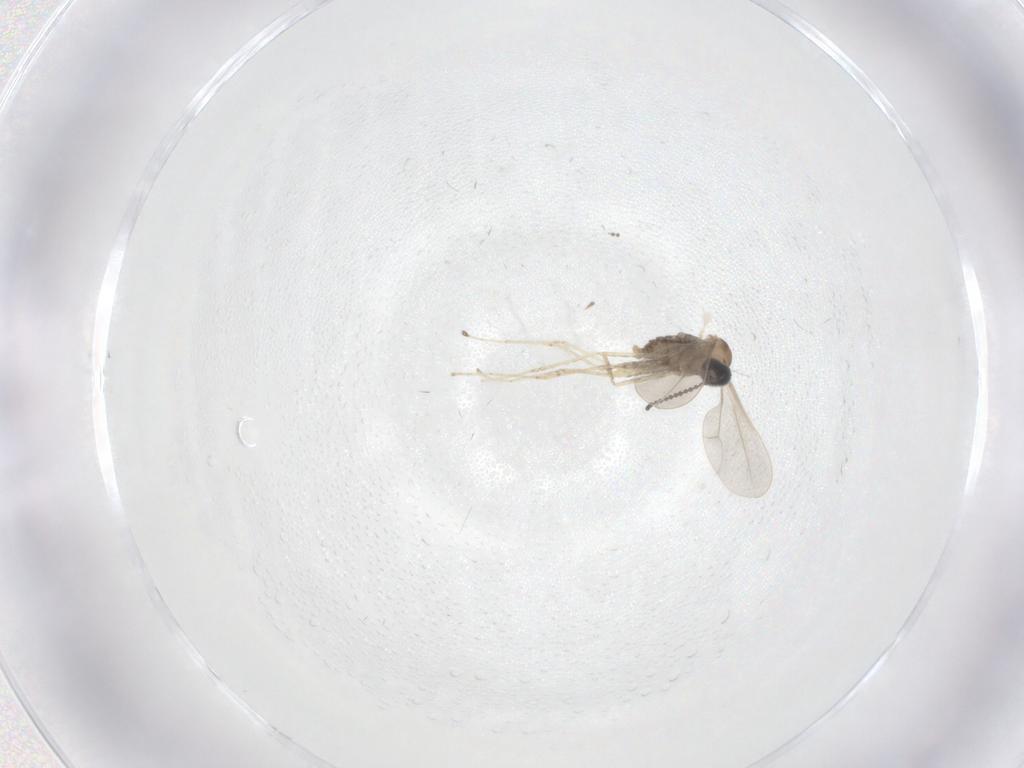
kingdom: Animalia
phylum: Arthropoda
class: Insecta
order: Diptera
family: Cecidomyiidae
